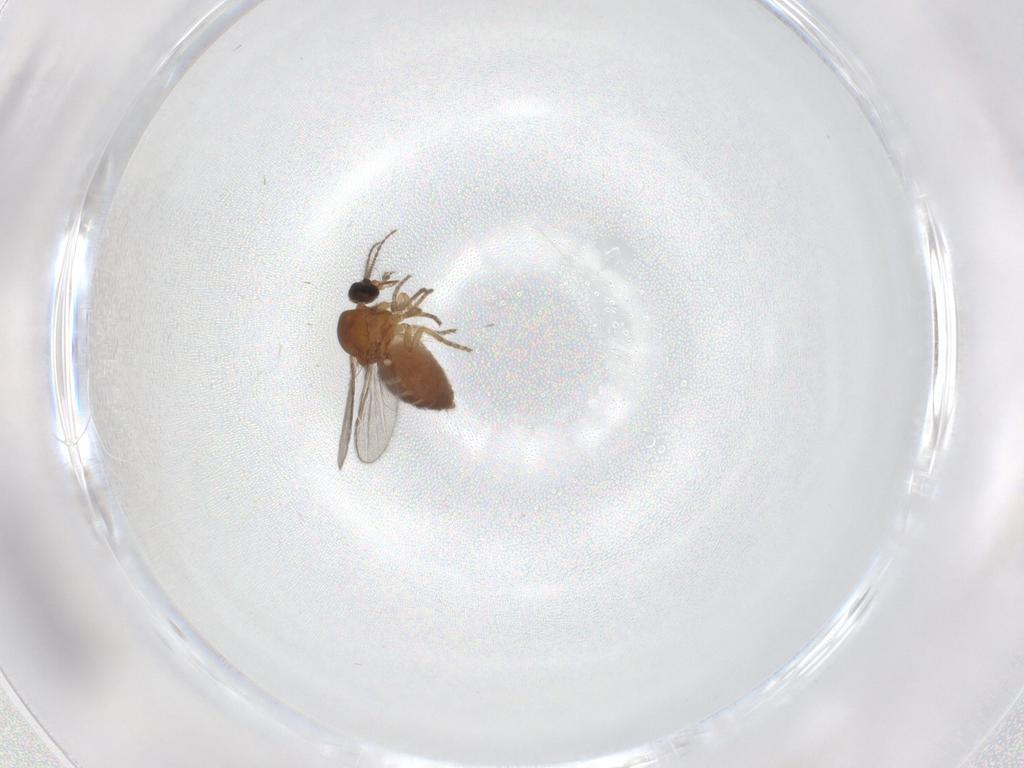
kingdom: Animalia
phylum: Arthropoda
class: Insecta
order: Diptera
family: Ceratopogonidae
